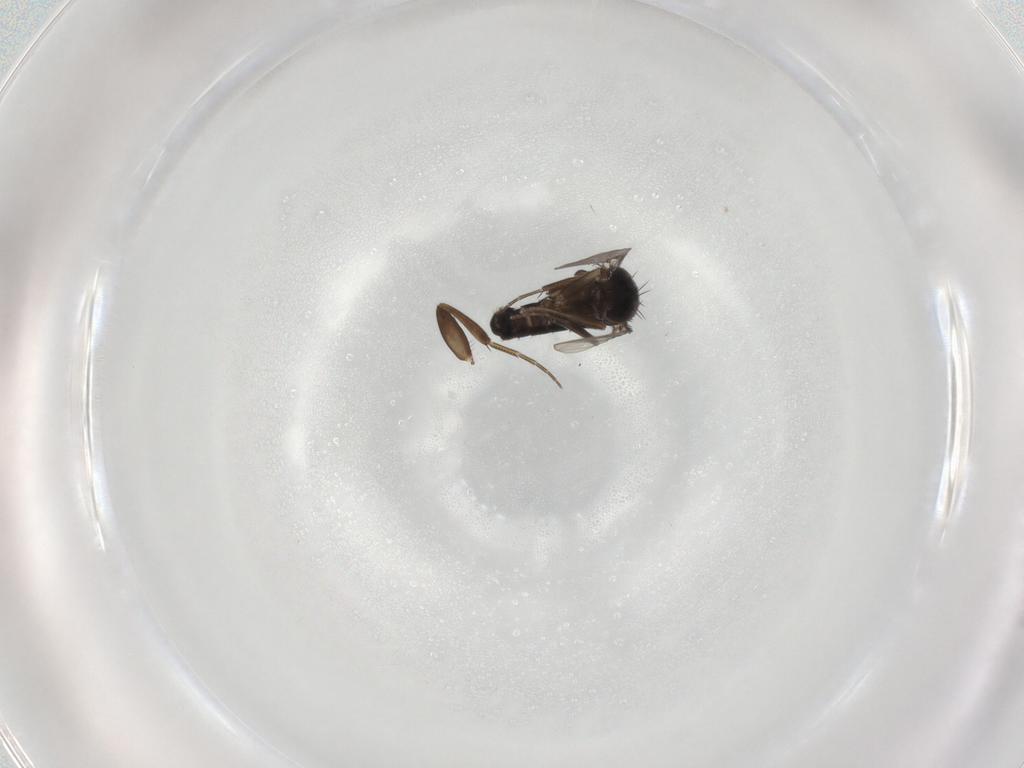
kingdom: Animalia
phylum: Arthropoda
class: Insecta
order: Diptera
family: Phoridae
